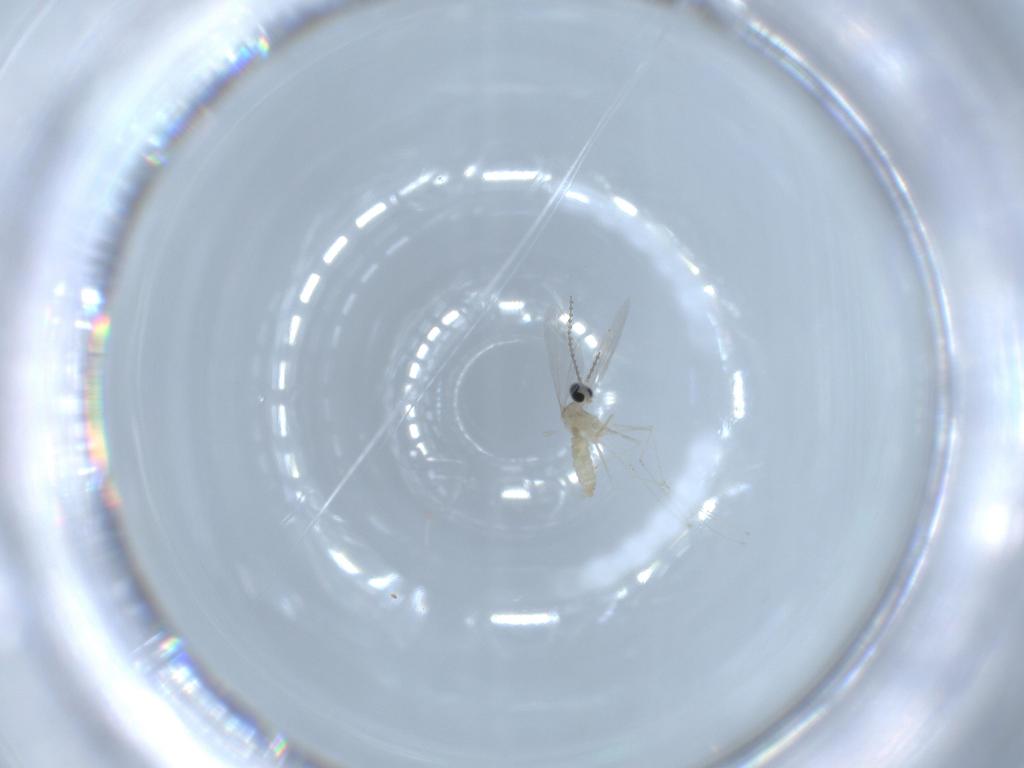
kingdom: Animalia
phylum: Arthropoda
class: Insecta
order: Diptera
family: Cecidomyiidae
